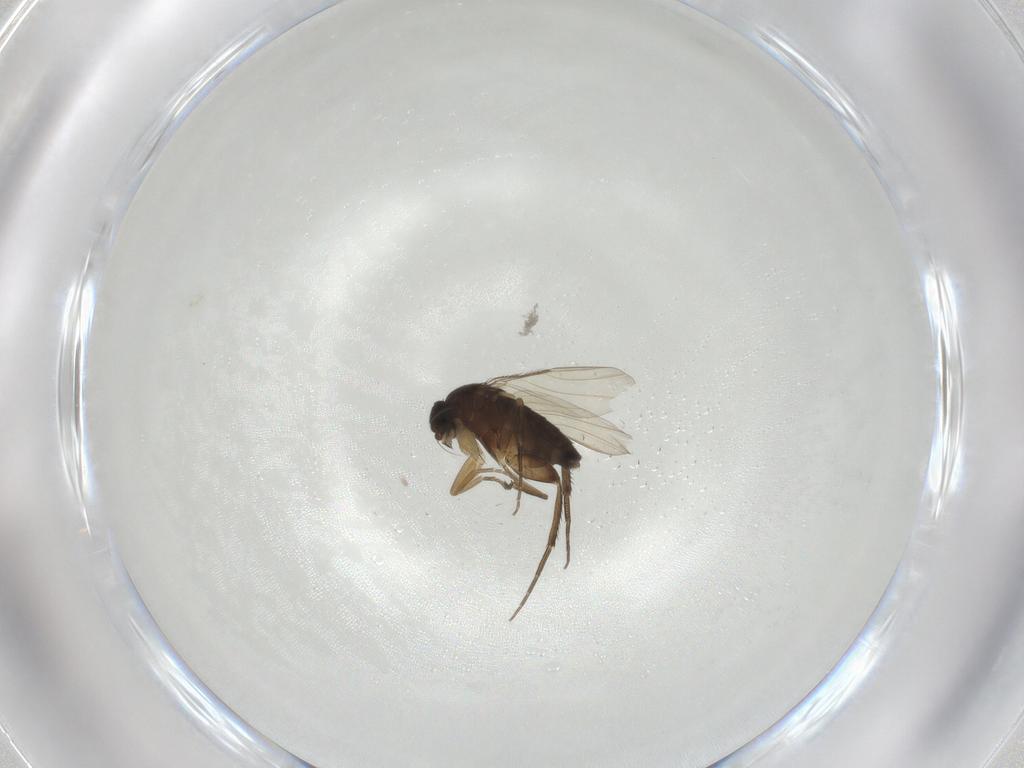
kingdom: Animalia
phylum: Arthropoda
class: Insecta
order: Diptera
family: Phoridae
